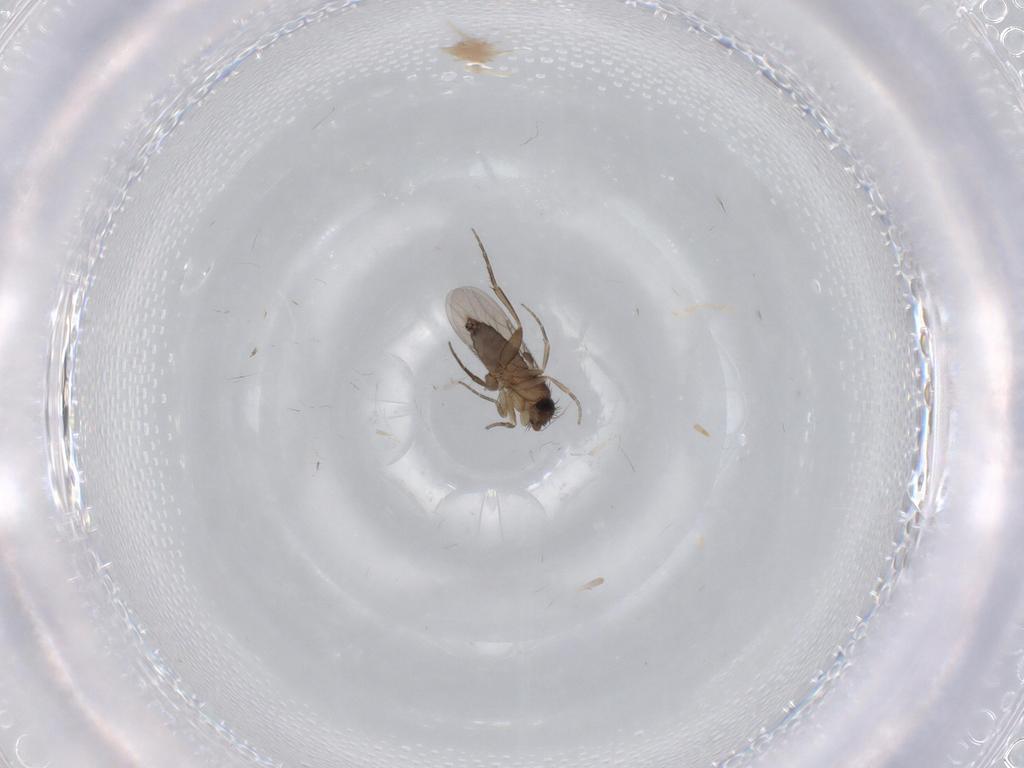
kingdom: Animalia
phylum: Arthropoda
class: Insecta
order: Diptera
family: Phoridae
